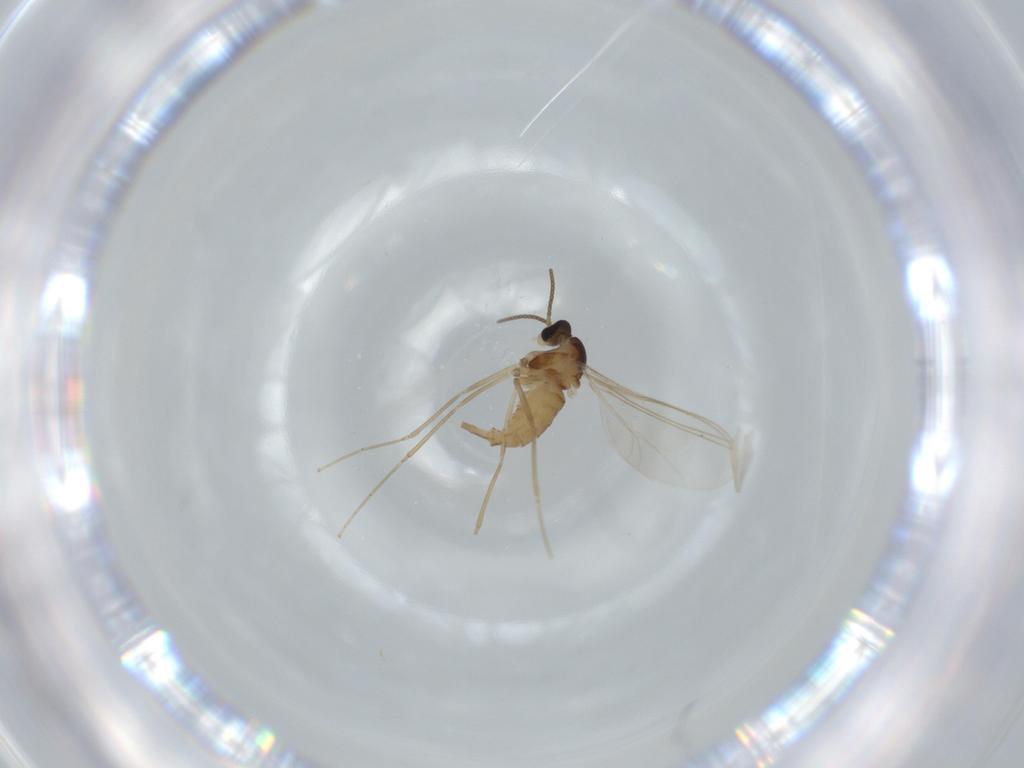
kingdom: Animalia
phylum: Arthropoda
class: Insecta
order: Diptera
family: Cecidomyiidae
